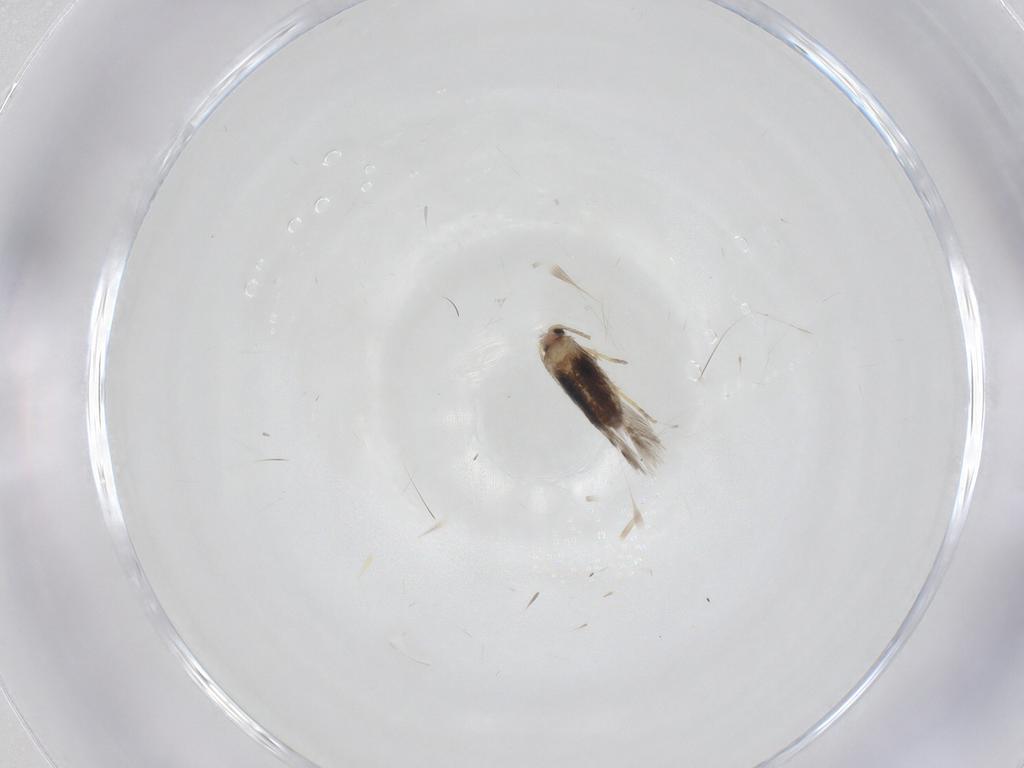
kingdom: Animalia
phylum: Arthropoda
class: Insecta
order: Lepidoptera
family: Nepticulidae
